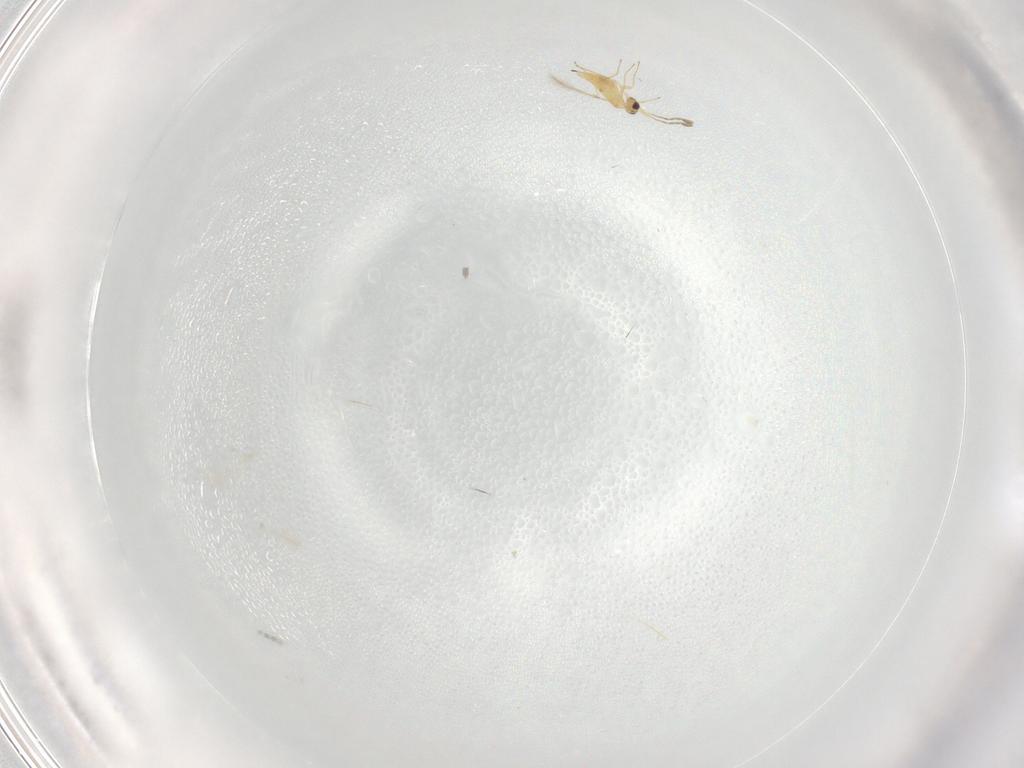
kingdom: Animalia
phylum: Arthropoda
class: Insecta
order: Hymenoptera
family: Mymaridae
